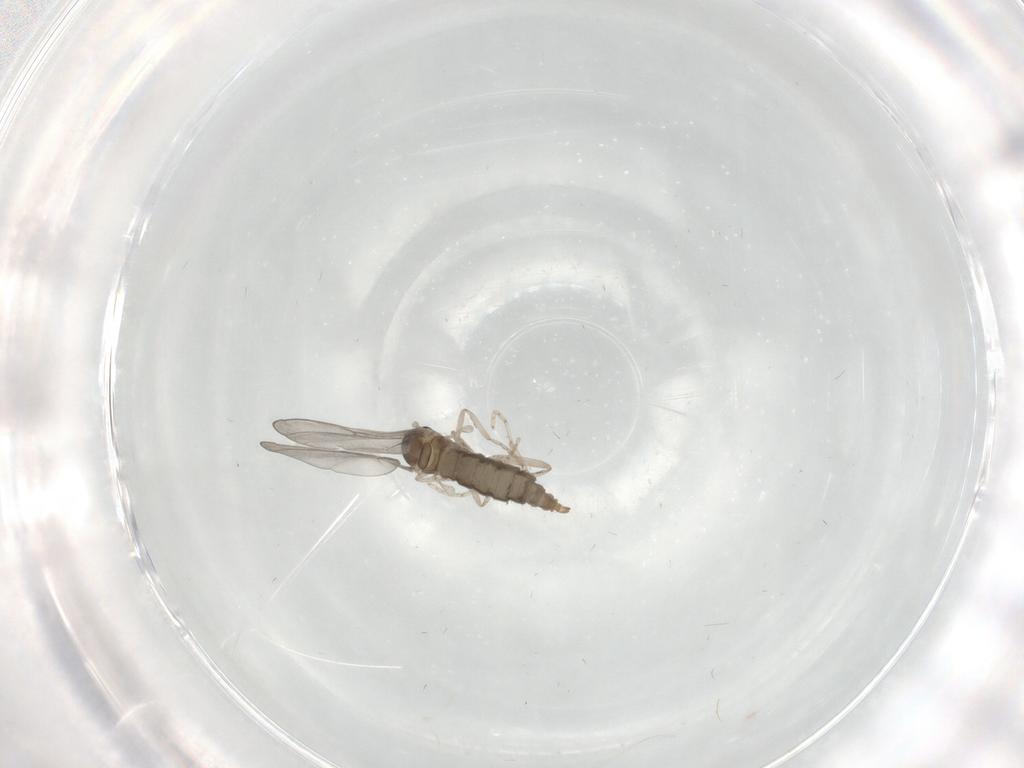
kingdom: Animalia
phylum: Arthropoda
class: Insecta
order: Diptera
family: Cecidomyiidae
